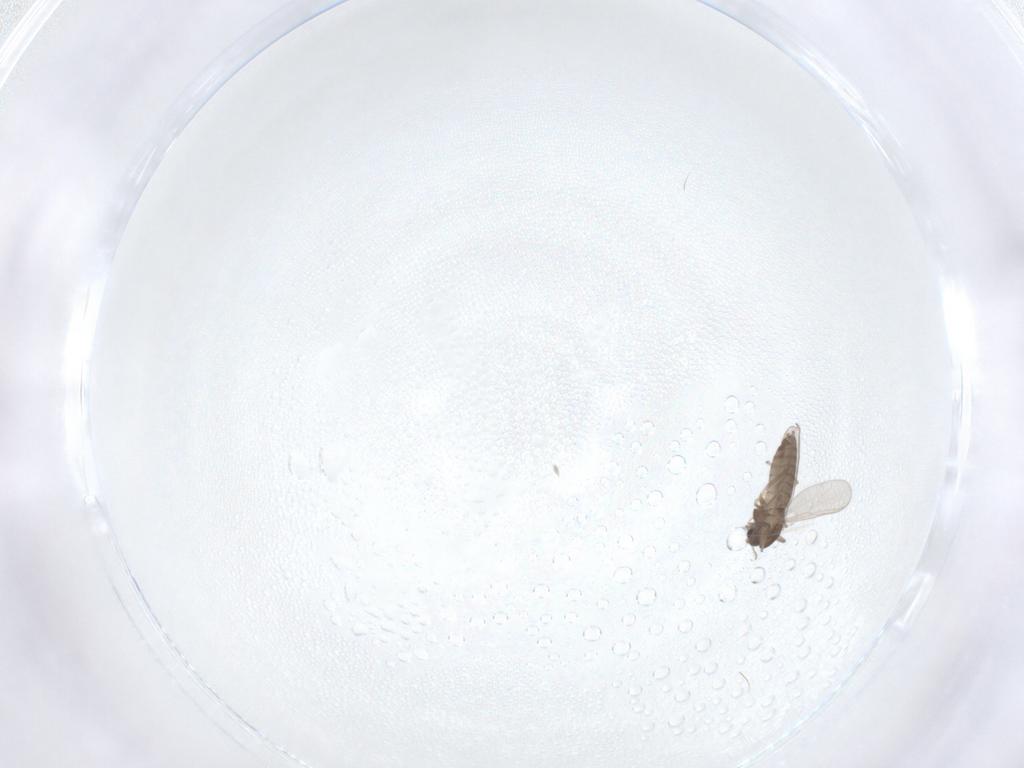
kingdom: Animalia
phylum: Arthropoda
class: Insecta
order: Diptera
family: Chironomidae
